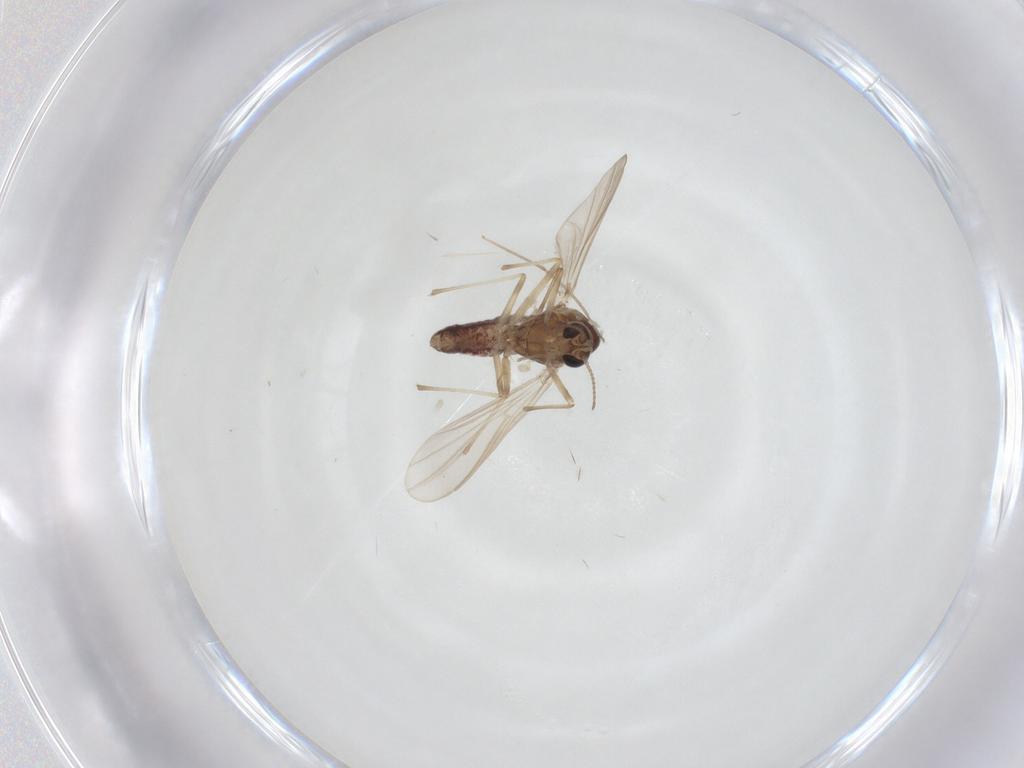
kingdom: Animalia
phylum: Arthropoda
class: Insecta
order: Diptera
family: Empididae
